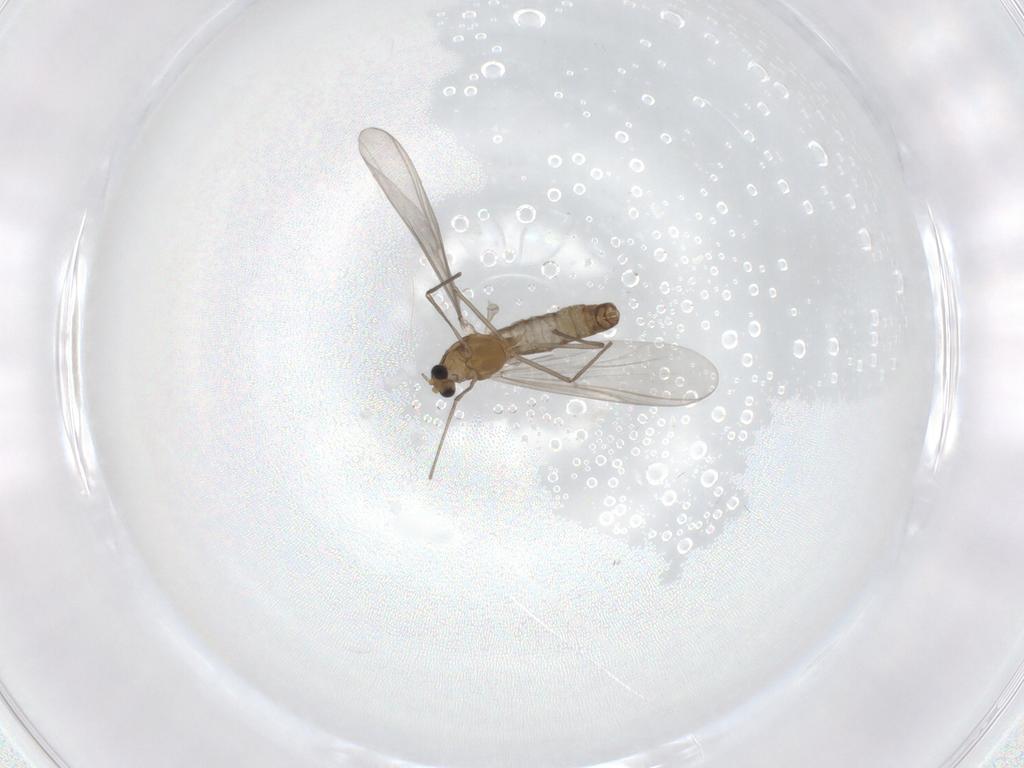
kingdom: Animalia
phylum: Arthropoda
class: Insecta
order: Diptera
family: Chironomidae
